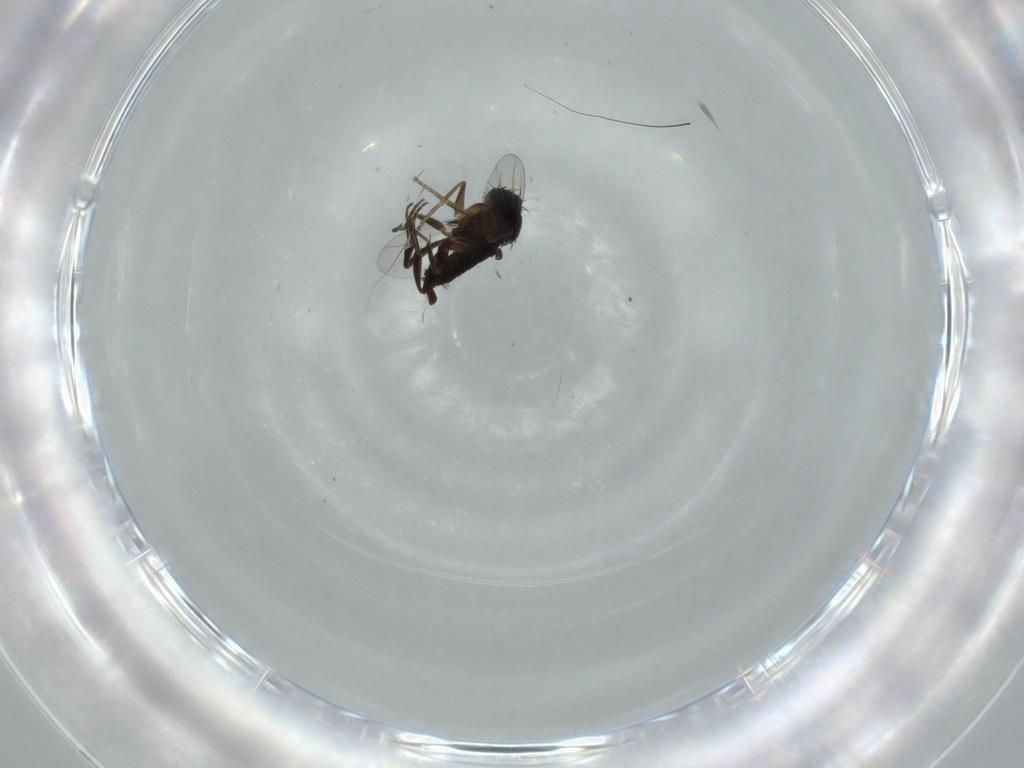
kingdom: Animalia
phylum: Arthropoda
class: Insecta
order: Diptera
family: Phoridae
